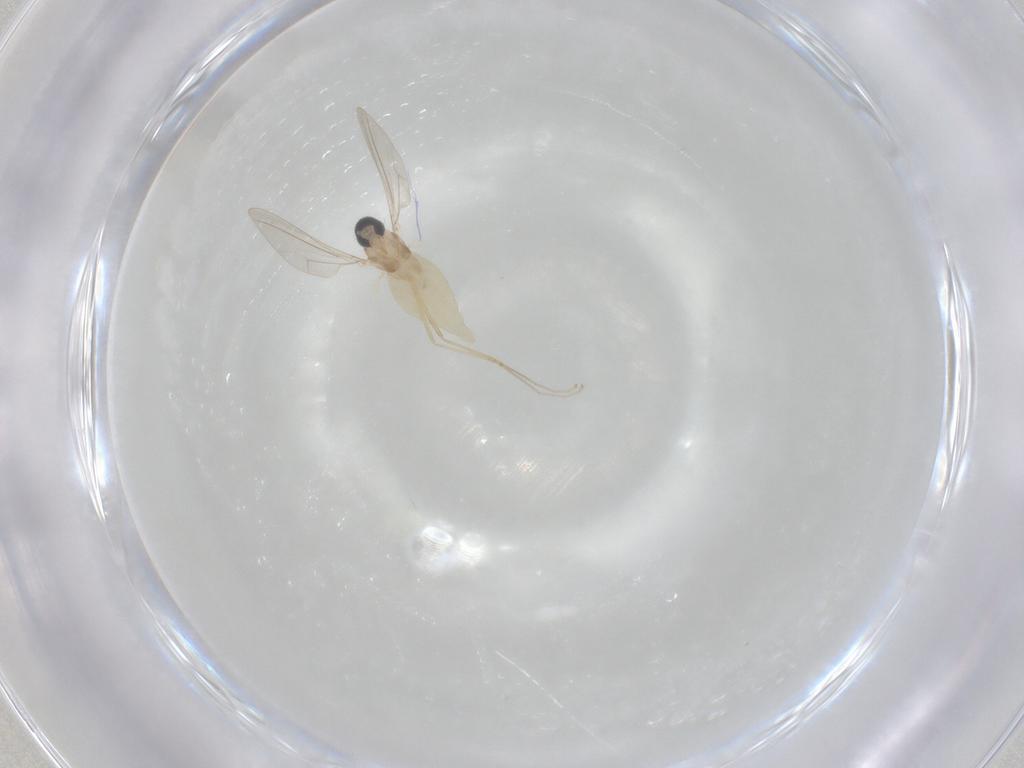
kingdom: Animalia
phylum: Arthropoda
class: Insecta
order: Diptera
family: Cecidomyiidae
